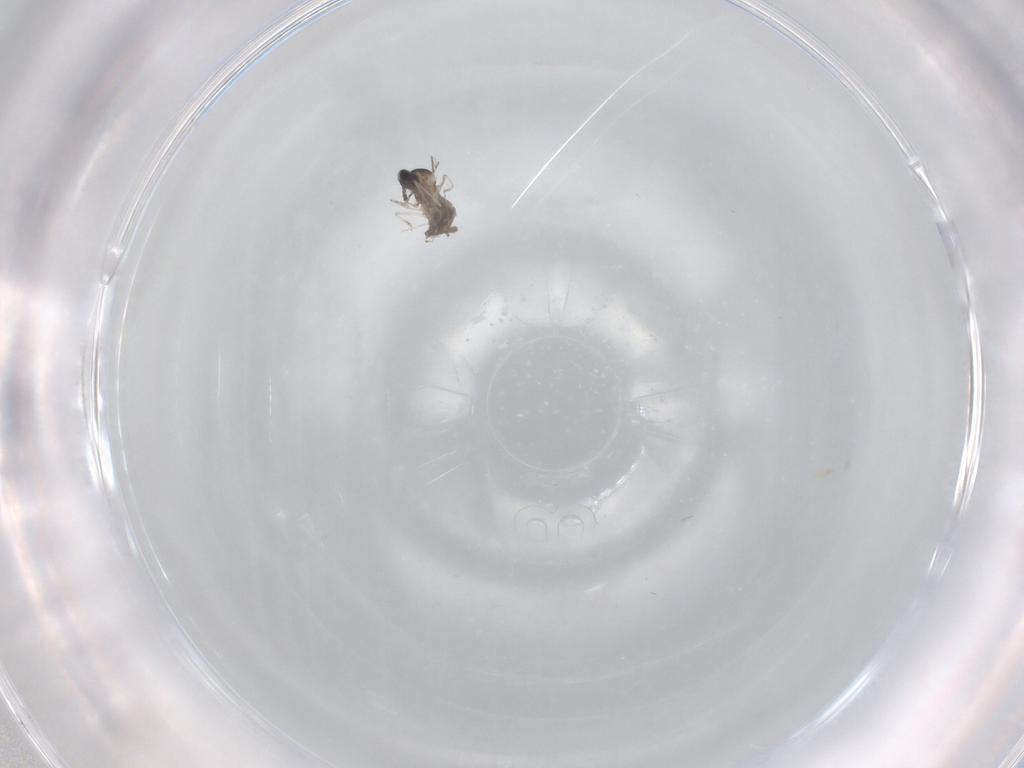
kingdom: Animalia
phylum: Arthropoda
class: Insecta
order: Diptera
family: Cecidomyiidae
